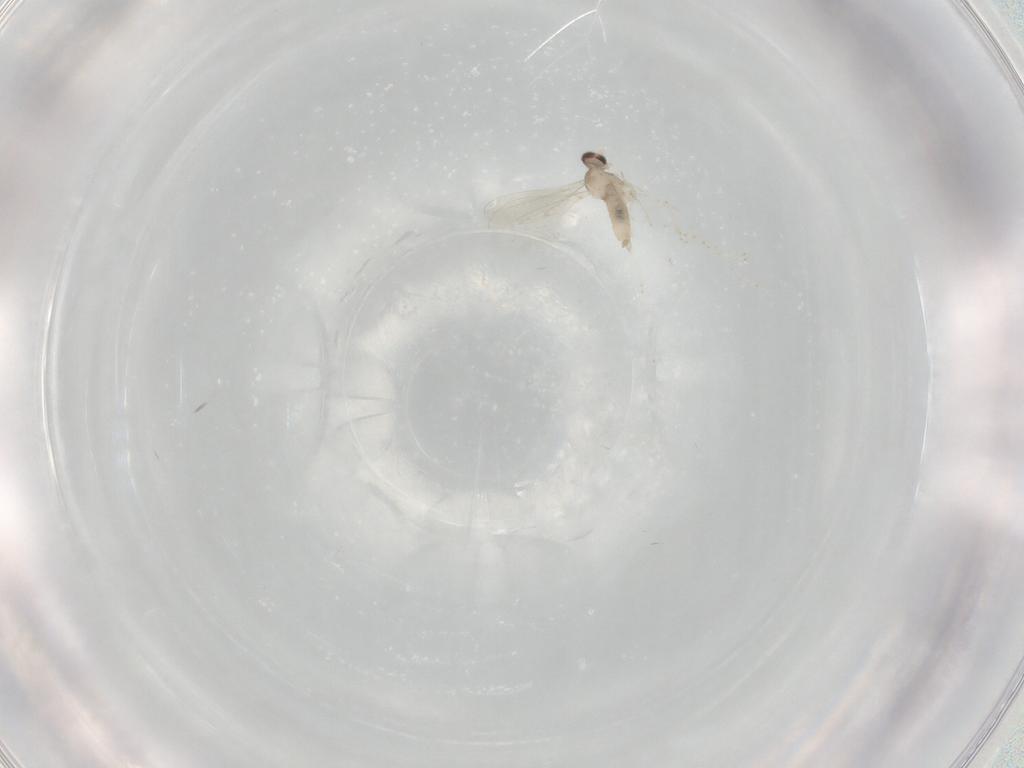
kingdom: Animalia
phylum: Arthropoda
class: Insecta
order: Diptera
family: Cecidomyiidae
